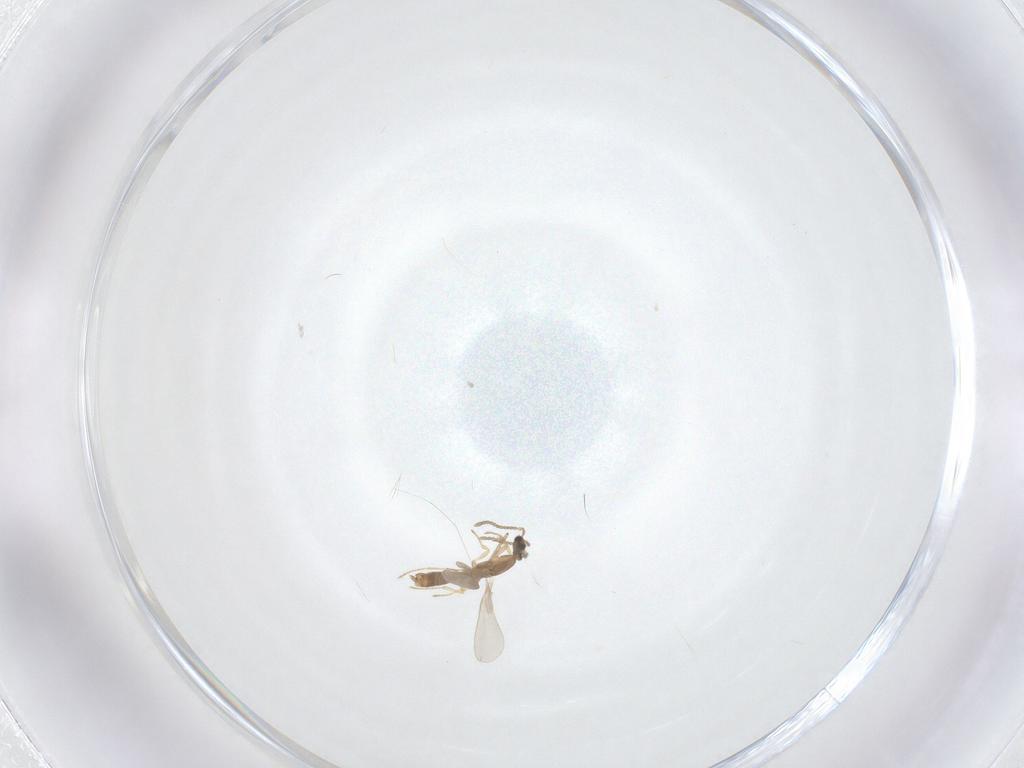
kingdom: Animalia
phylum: Arthropoda
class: Insecta
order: Hymenoptera
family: Formicidae
